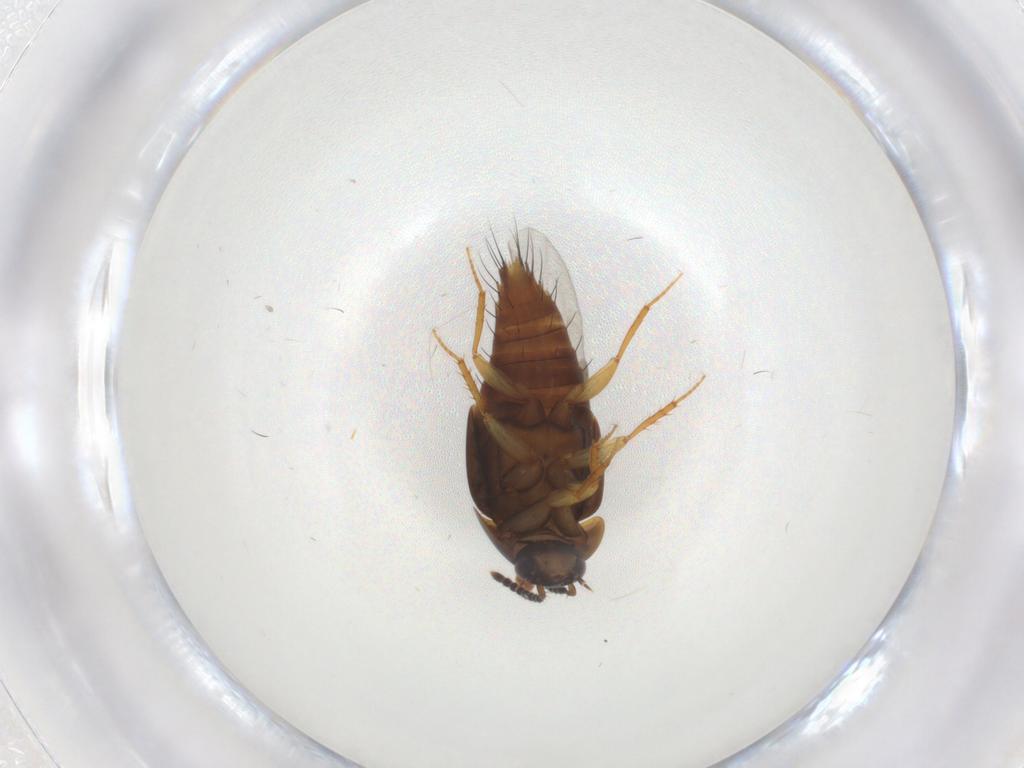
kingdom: Animalia
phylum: Arthropoda
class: Insecta
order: Coleoptera
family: Staphylinidae
